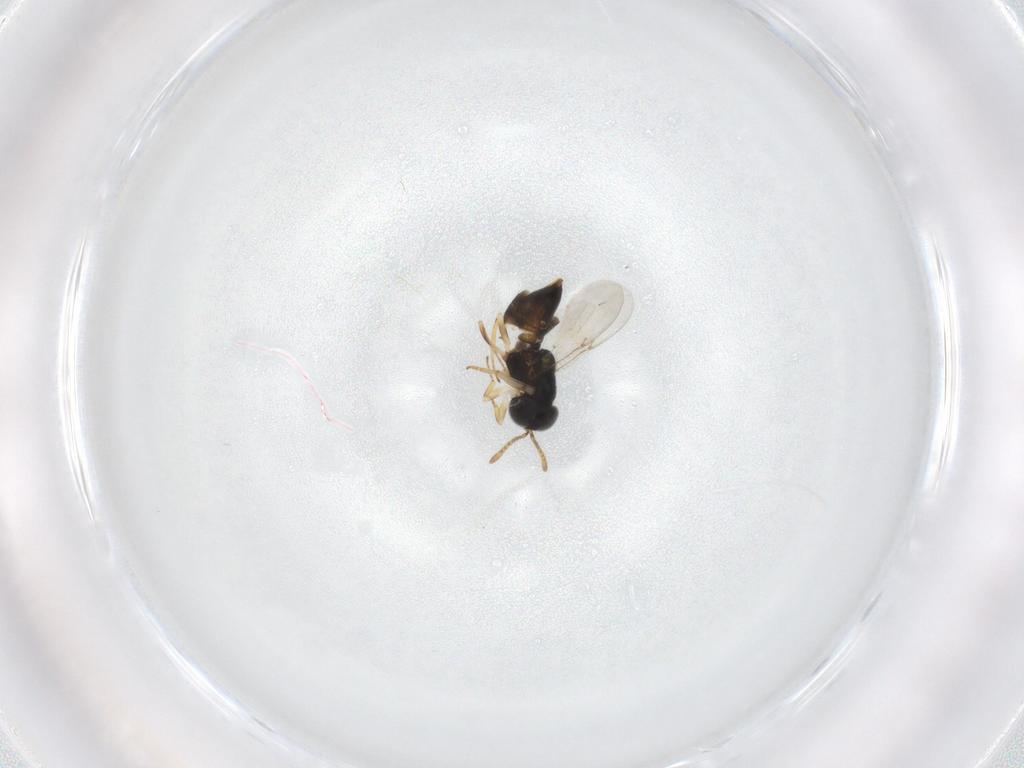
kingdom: Animalia
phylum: Arthropoda
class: Insecta
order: Hymenoptera
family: Encyrtidae
